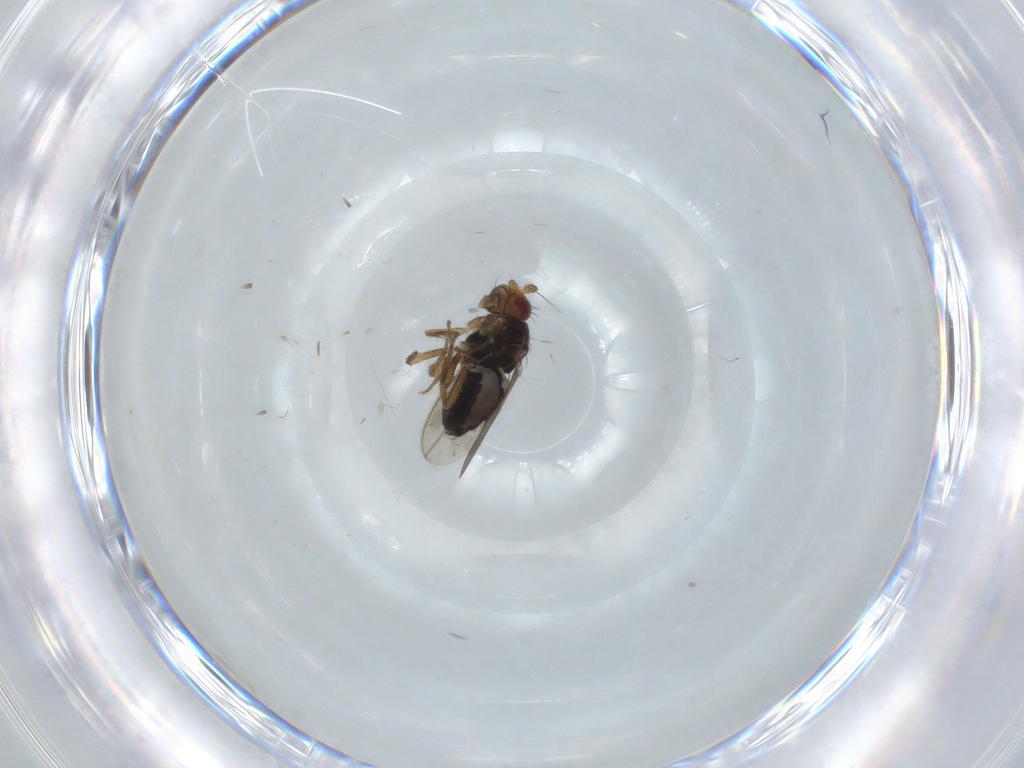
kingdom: Animalia
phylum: Arthropoda
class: Insecta
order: Diptera
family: Sphaeroceridae
